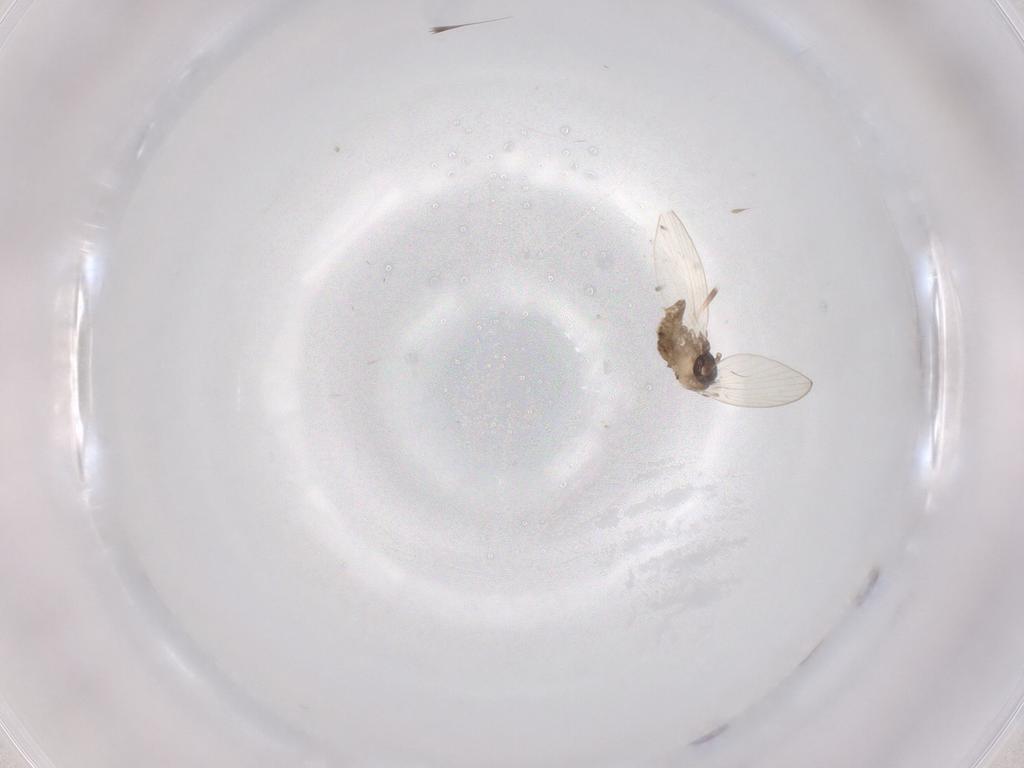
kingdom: Animalia
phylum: Arthropoda
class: Insecta
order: Diptera
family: Psychodidae
